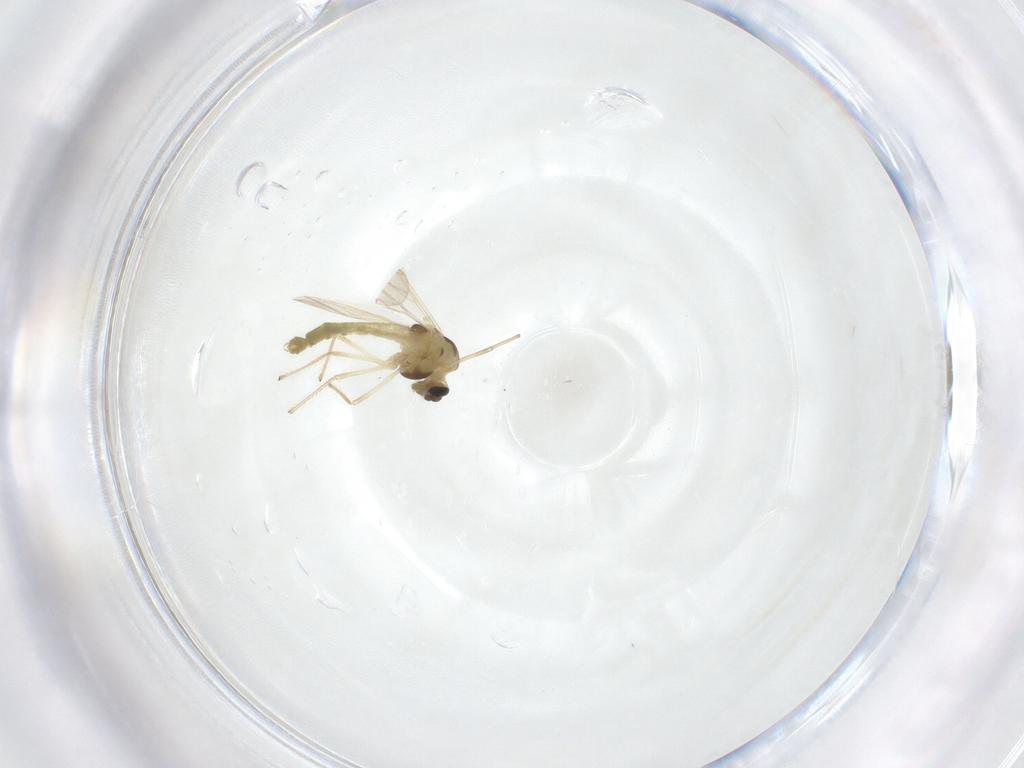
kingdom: Animalia
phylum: Arthropoda
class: Insecta
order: Diptera
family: Chironomidae
